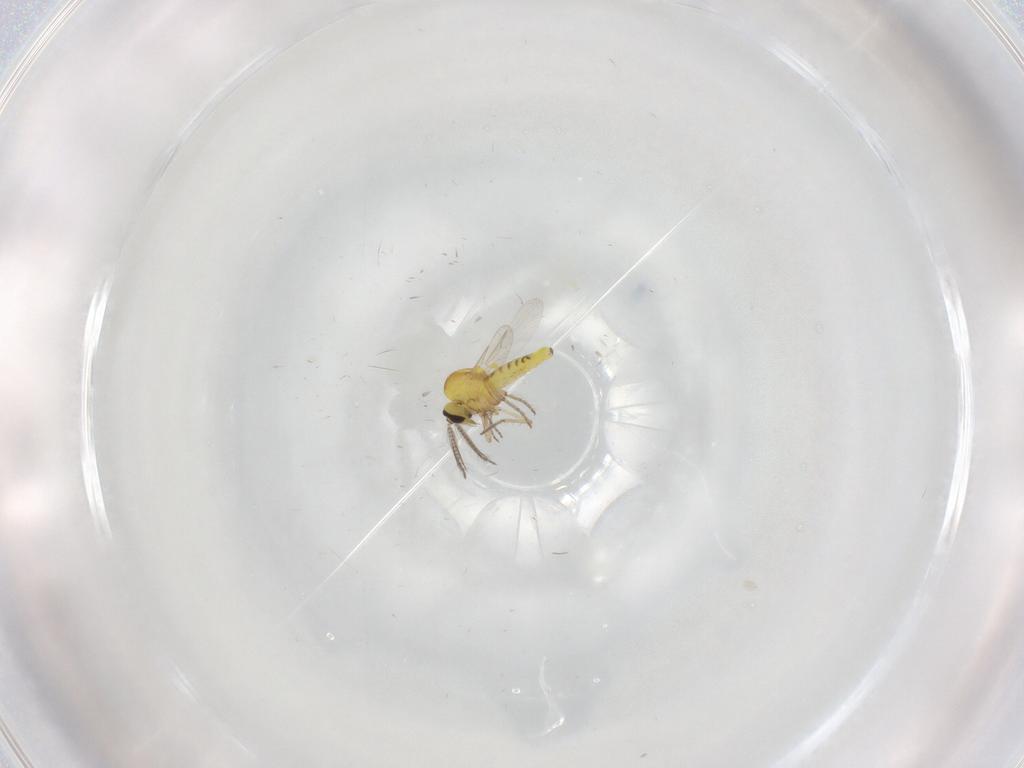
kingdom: Animalia
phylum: Arthropoda
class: Insecta
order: Diptera
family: Ceratopogonidae
